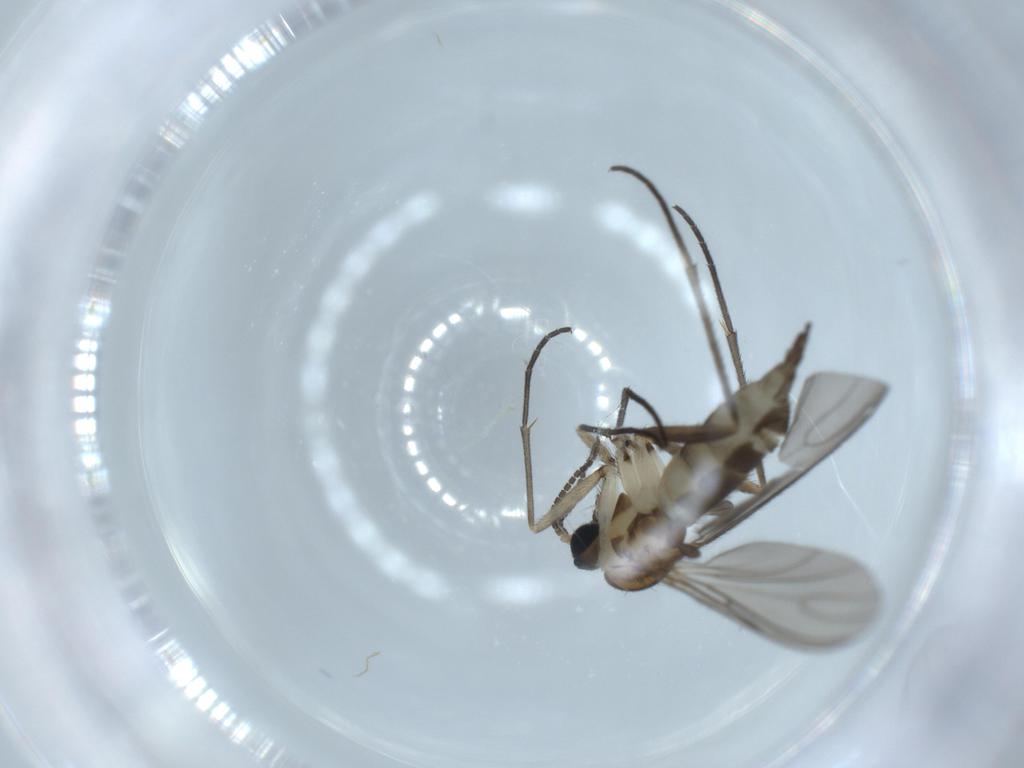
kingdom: Animalia
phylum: Arthropoda
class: Insecta
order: Diptera
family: Sciaridae
